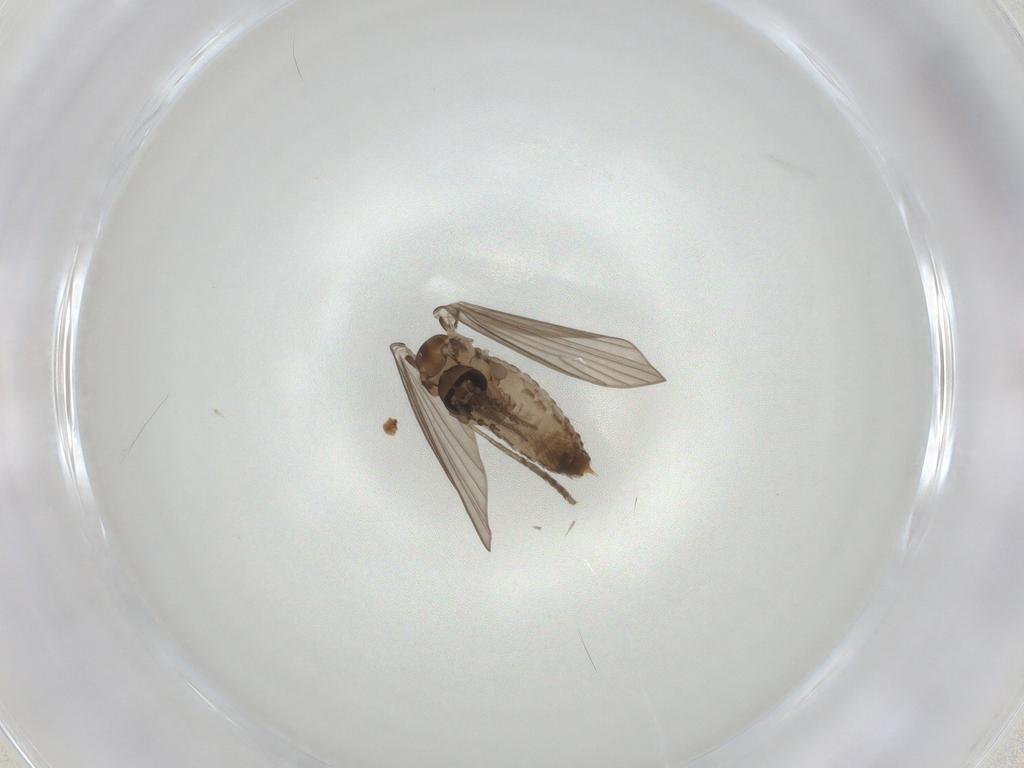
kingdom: Animalia
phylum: Arthropoda
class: Insecta
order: Diptera
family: Psychodidae
